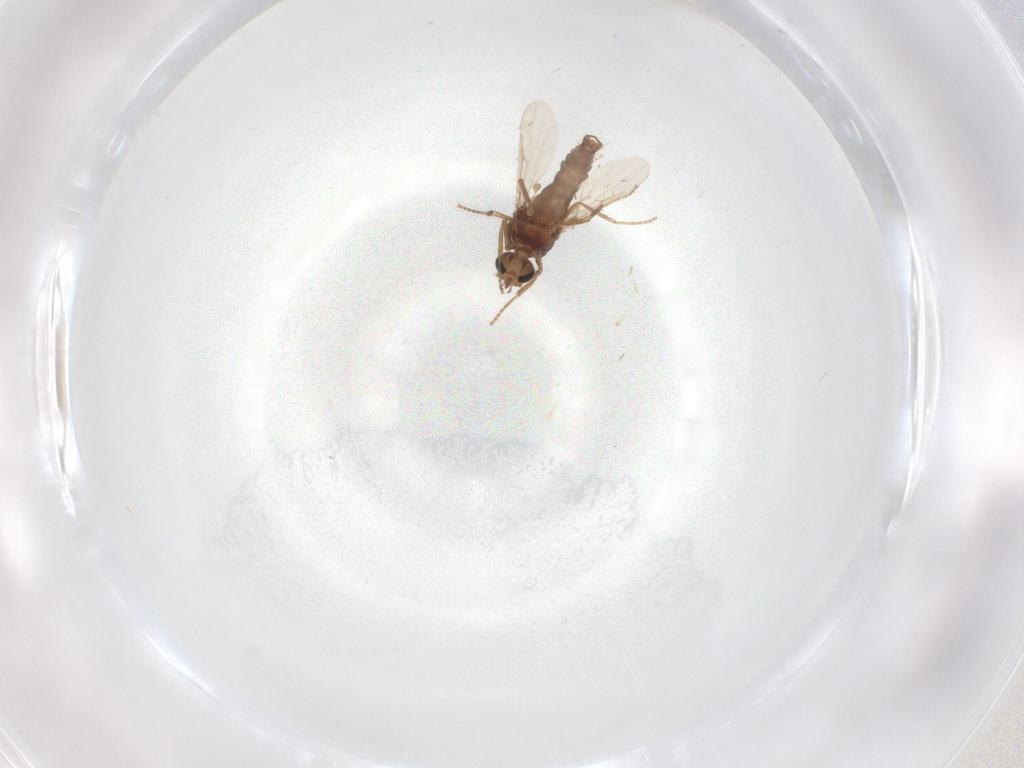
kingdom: Animalia
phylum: Arthropoda
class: Insecta
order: Diptera
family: Ceratopogonidae
